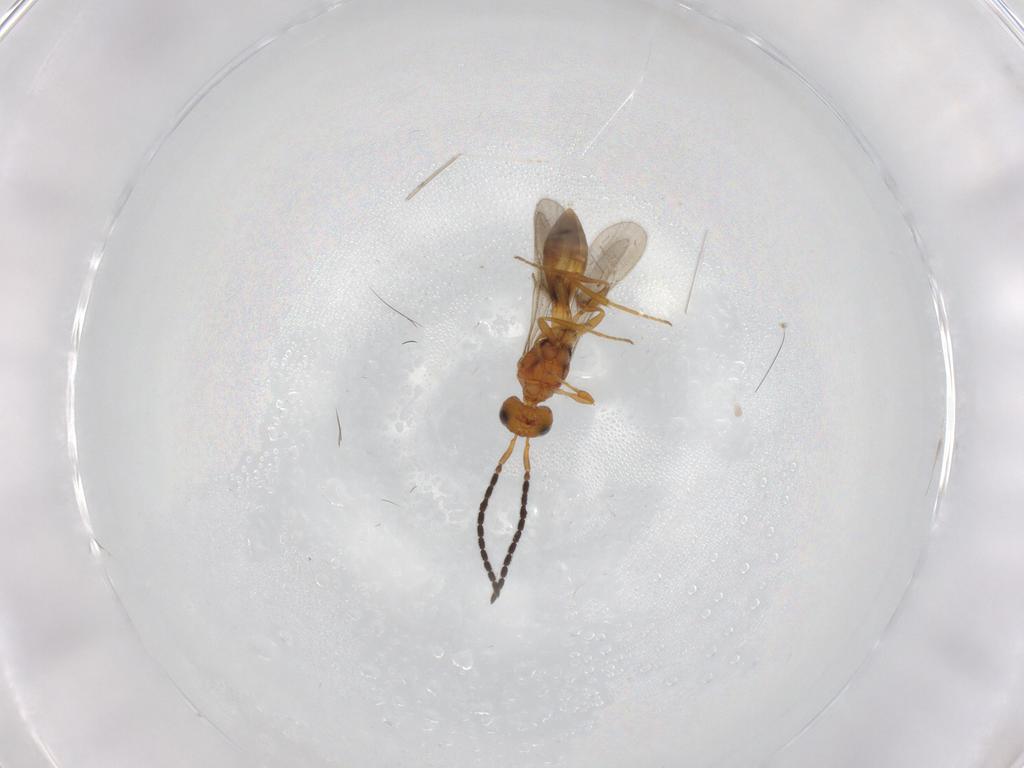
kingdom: Animalia
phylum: Arthropoda
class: Insecta
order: Hymenoptera
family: Scelionidae
